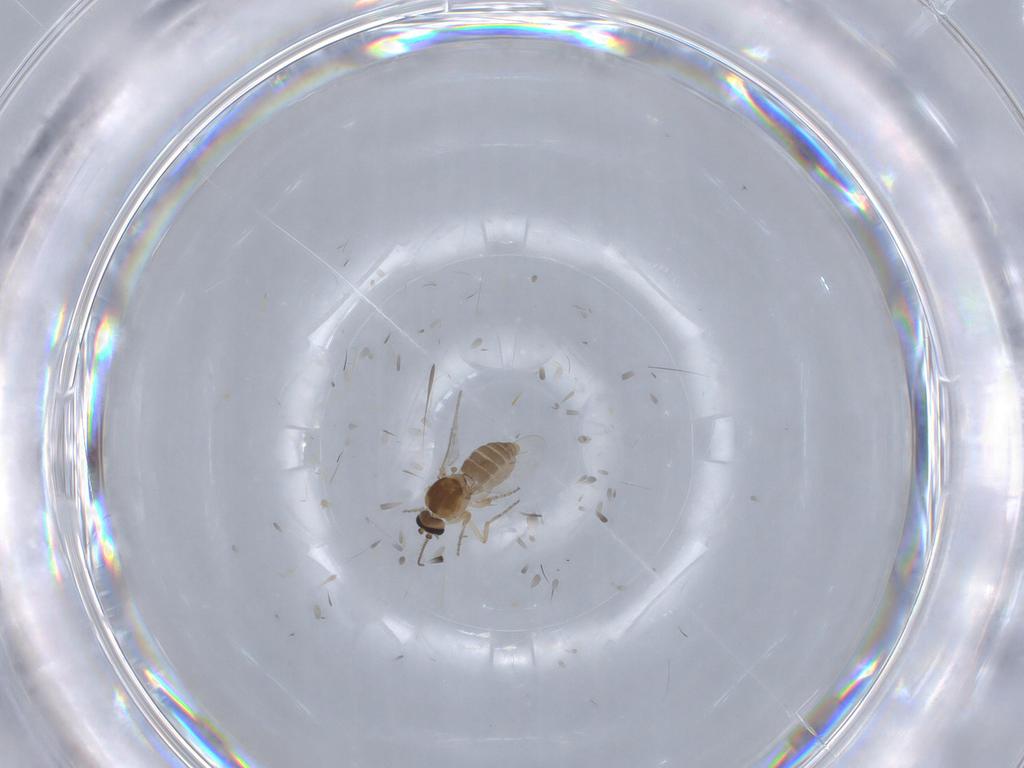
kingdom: Animalia
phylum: Arthropoda
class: Insecta
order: Diptera
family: Ceratopogonidae
